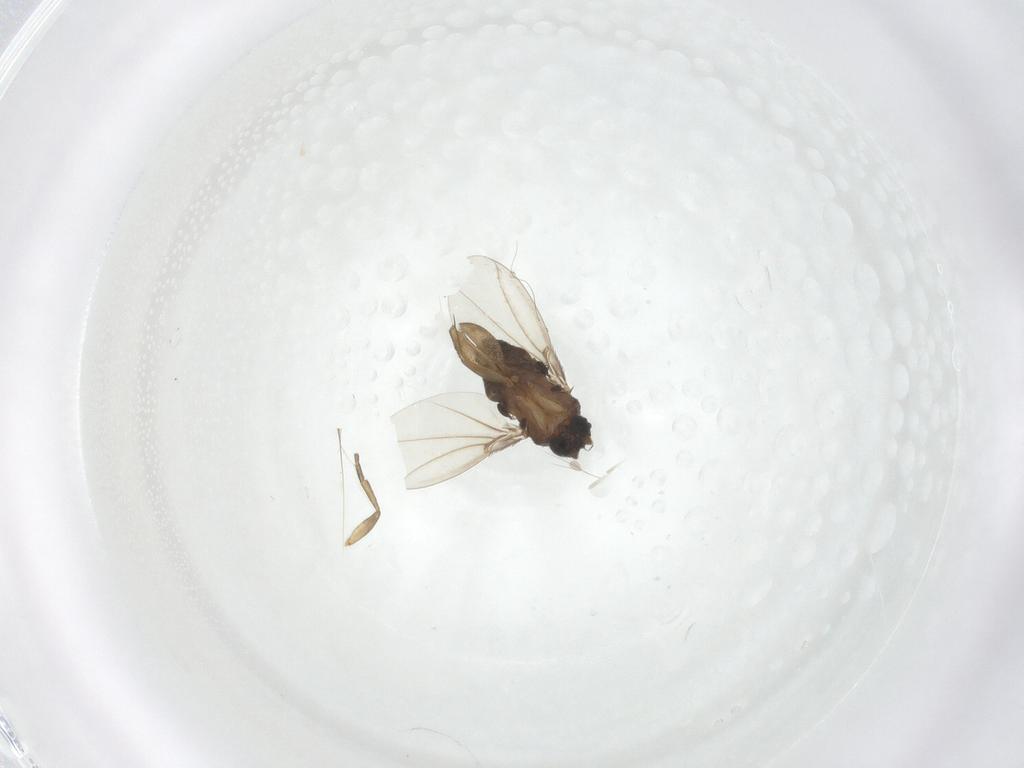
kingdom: Animalia
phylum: Arthropoda
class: Insecta
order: Diptera
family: Phoridae
